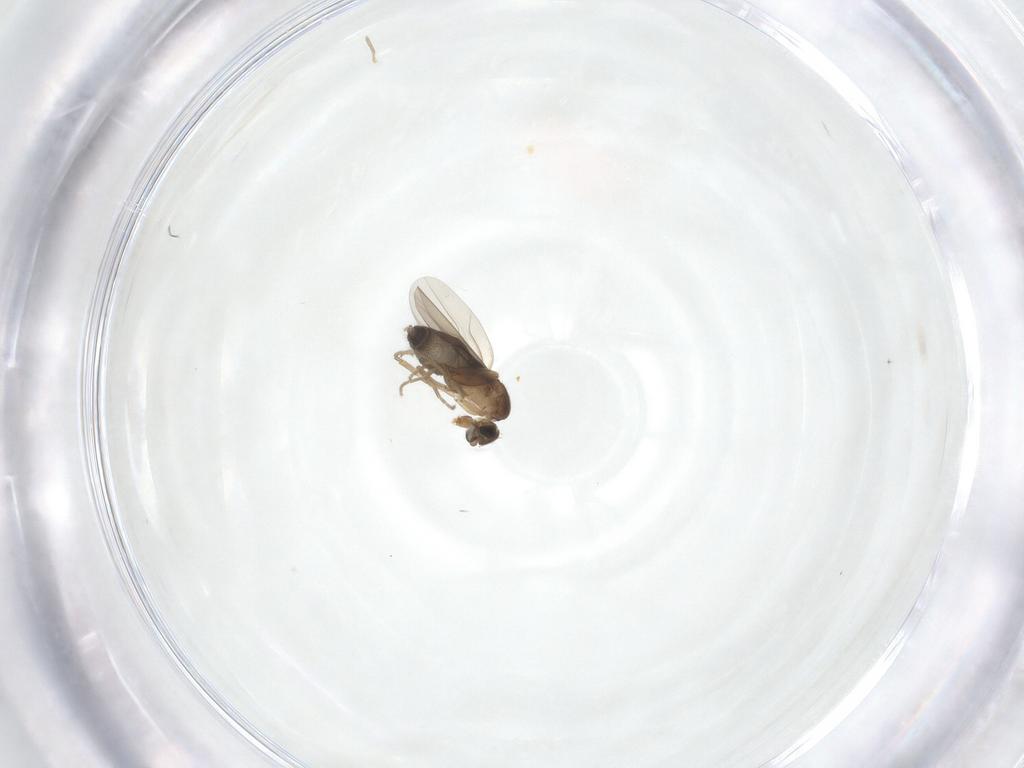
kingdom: Animalia
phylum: Arthropoda
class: Insecta
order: Diptera
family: Phoridae
